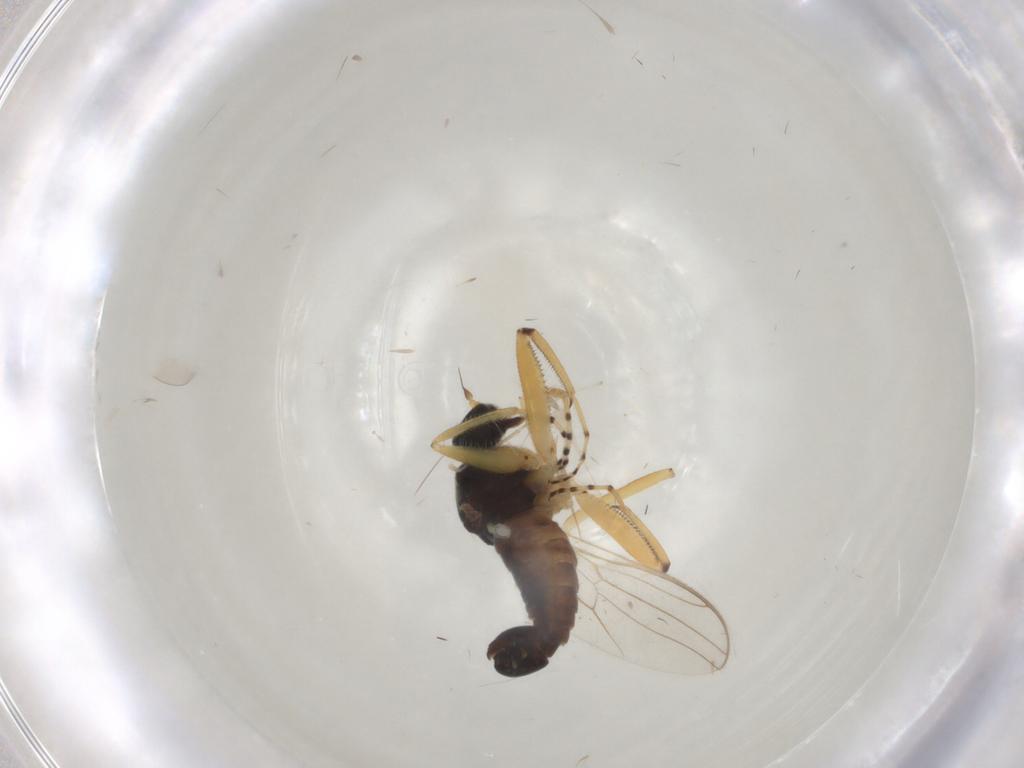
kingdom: Animalia
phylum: Arthropoda
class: Insecta
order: Diptera
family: Hybotidae
